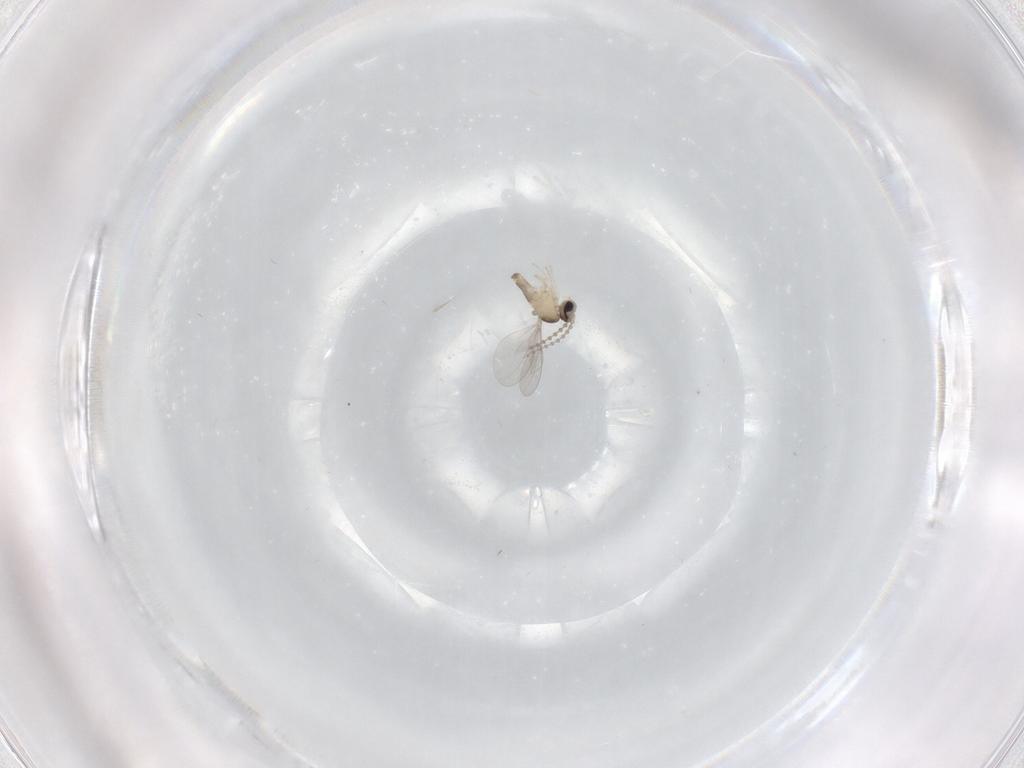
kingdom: Animalia
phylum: Arthropoda
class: Insecta
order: Diptera
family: Cecidomyiidae
